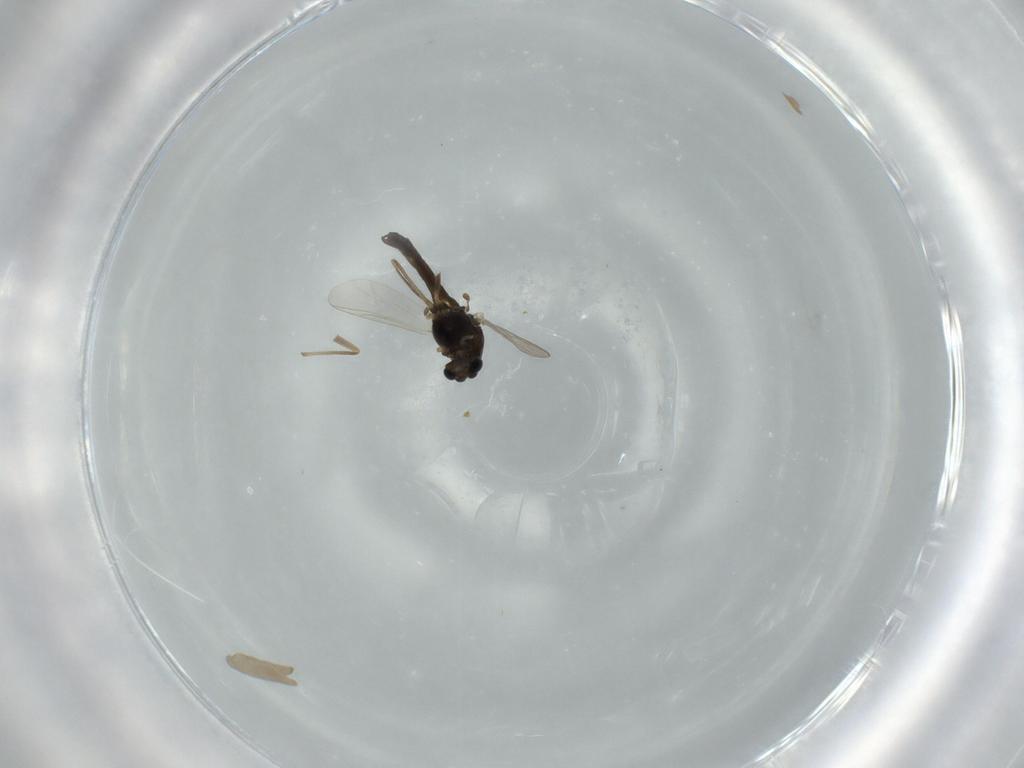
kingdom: Animalia
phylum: Arthropoda
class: Insecta
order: Diptera
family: Chironomidae
